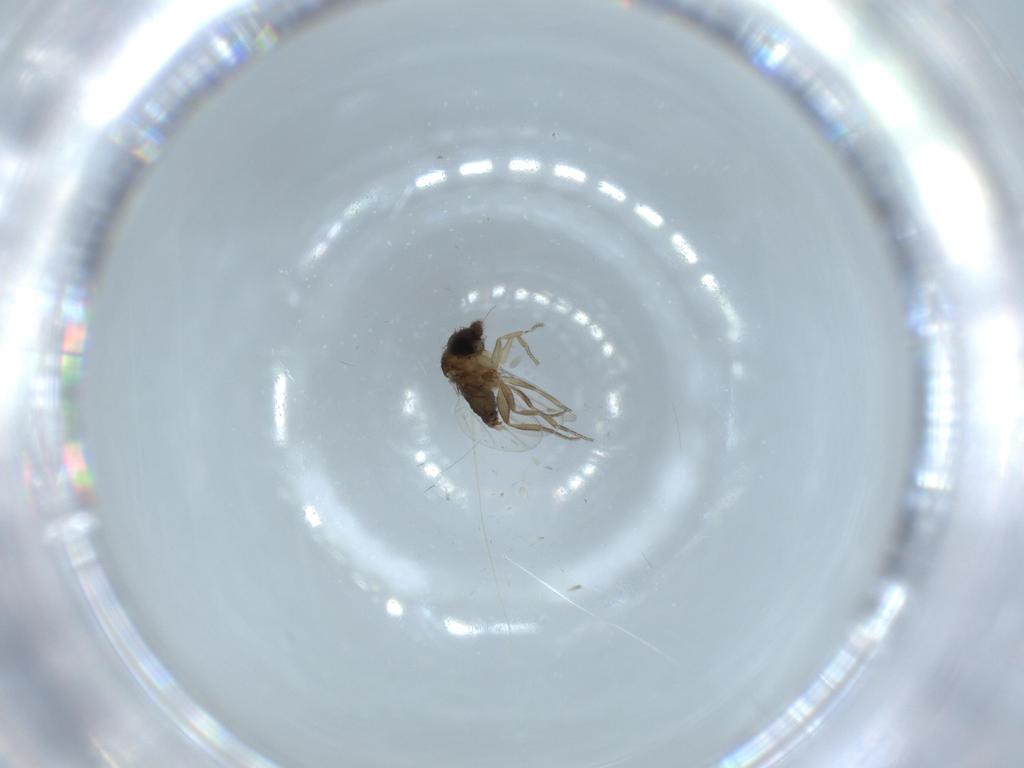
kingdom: Animalia
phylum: Arthropoda
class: Insecta
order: Diptera
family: Phoridae
